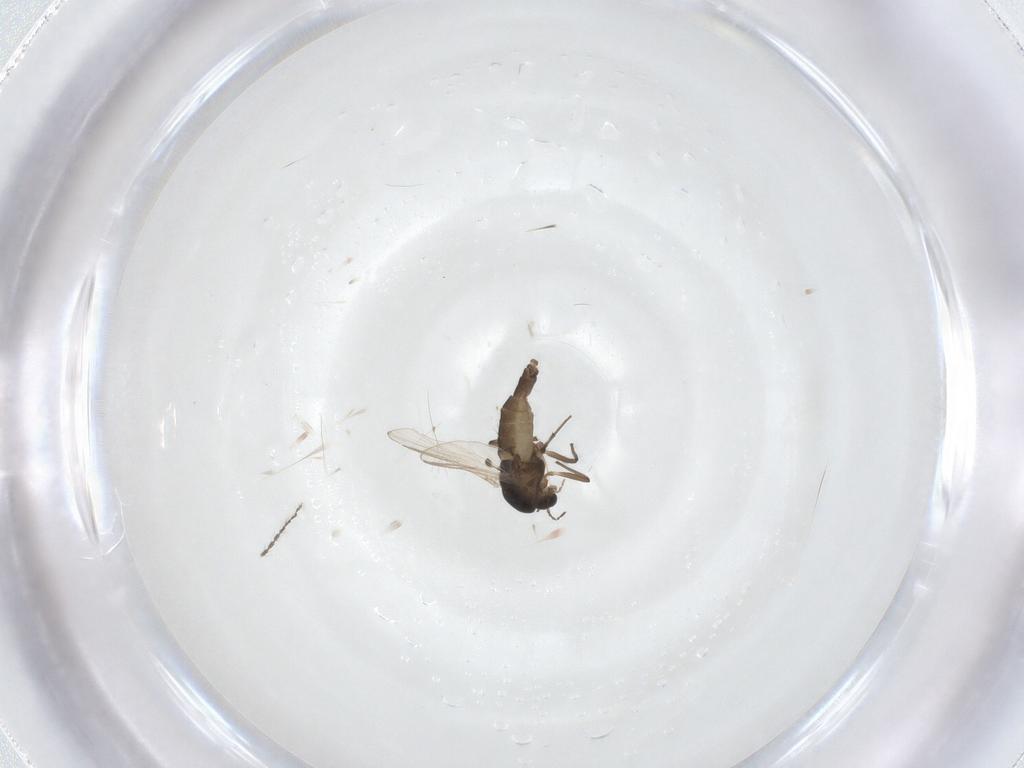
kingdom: Animalia
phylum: Arthropoda
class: Insecta
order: Diptera
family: Chironomidae
